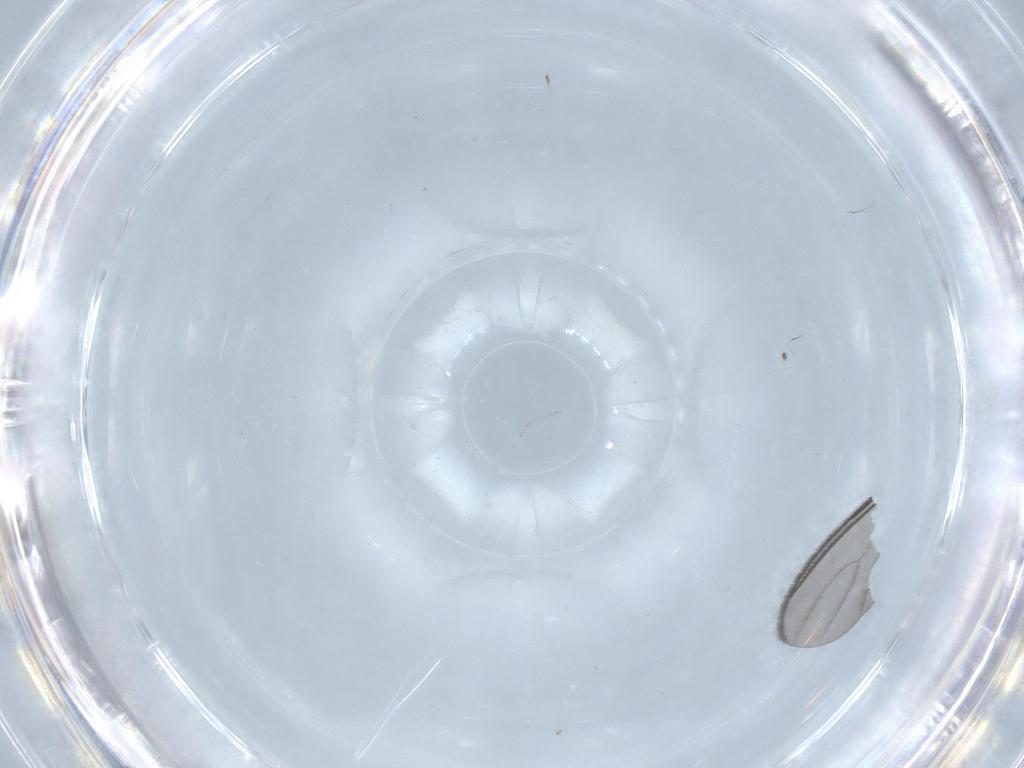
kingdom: Animalia
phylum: Arthropoda
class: Insecta
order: Diptera
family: Sciaridae
